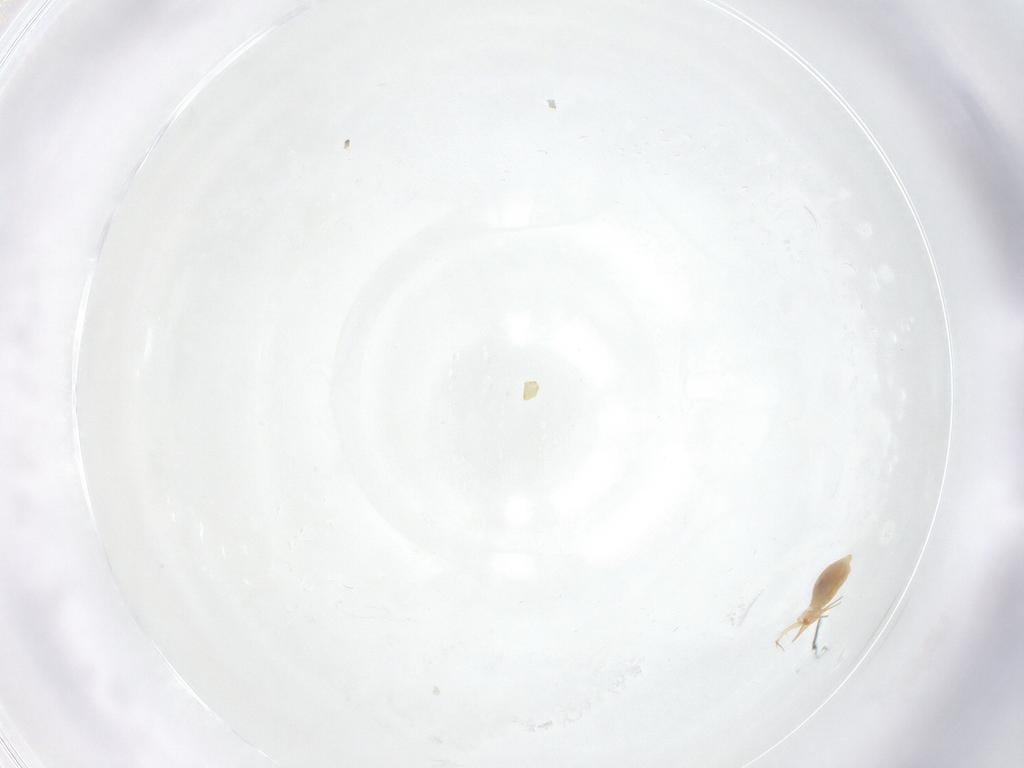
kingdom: Animalia
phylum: Arthropoda
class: Insecta
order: Psocodea
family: Liposcelididae
